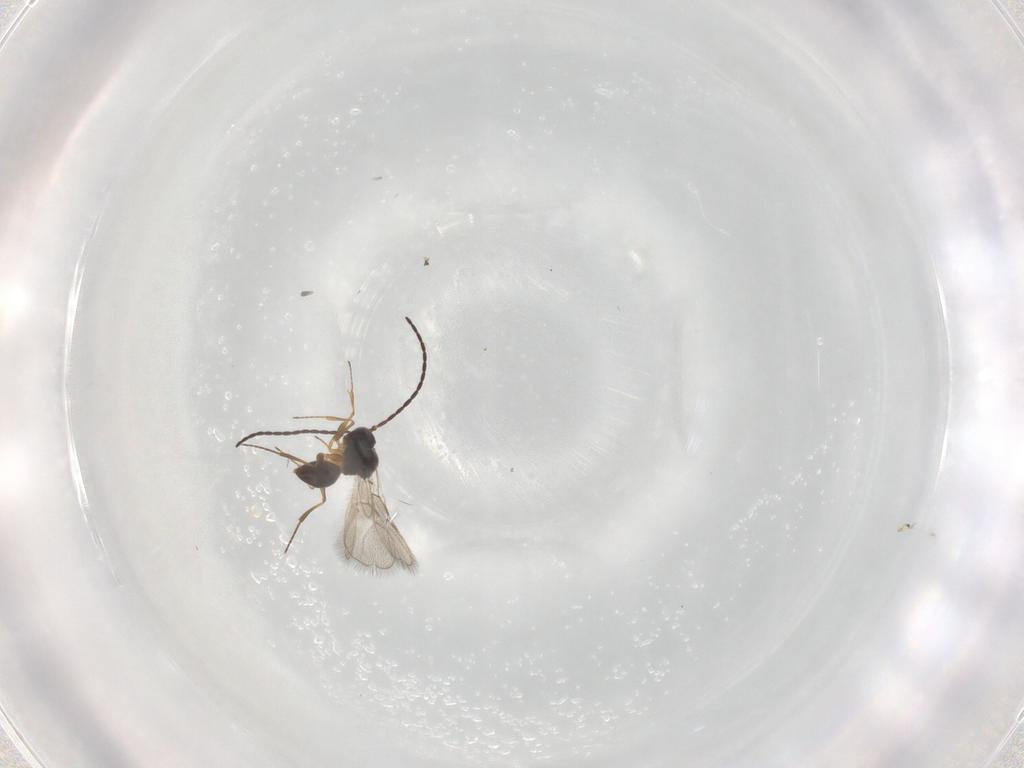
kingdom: Animalia
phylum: Arthropoda
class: Insecta
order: Hymenoptera
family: Figitidae
